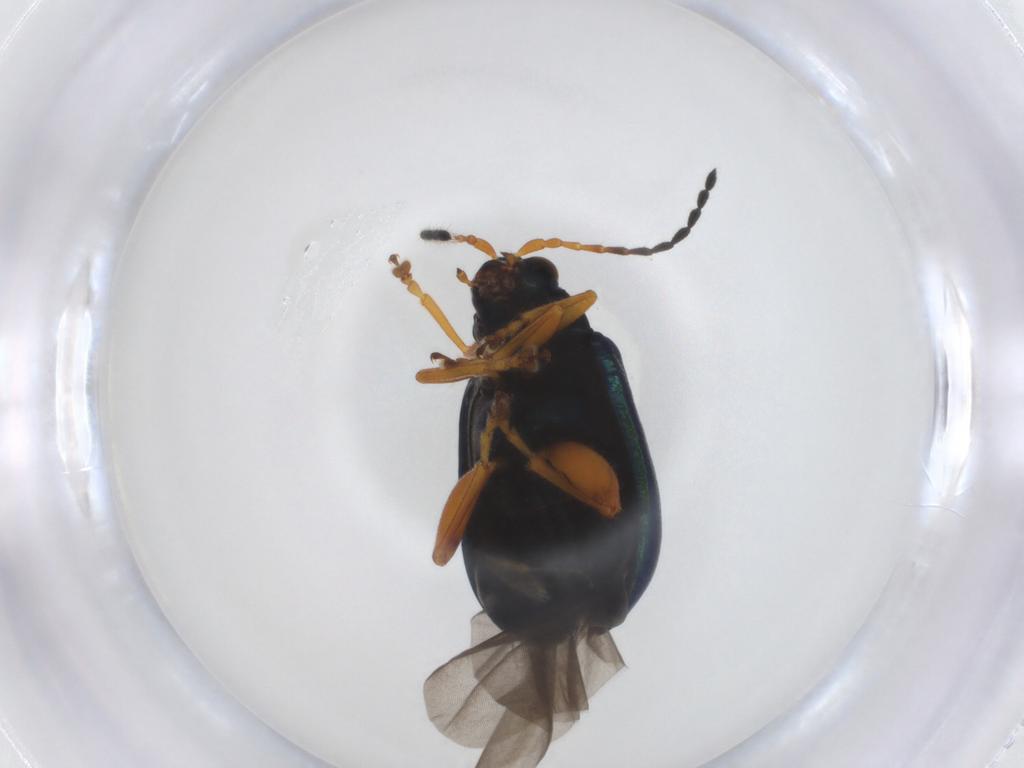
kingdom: Animalia
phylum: Arthropoda
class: Insecta
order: Coleoptera
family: Chrysomelidae
